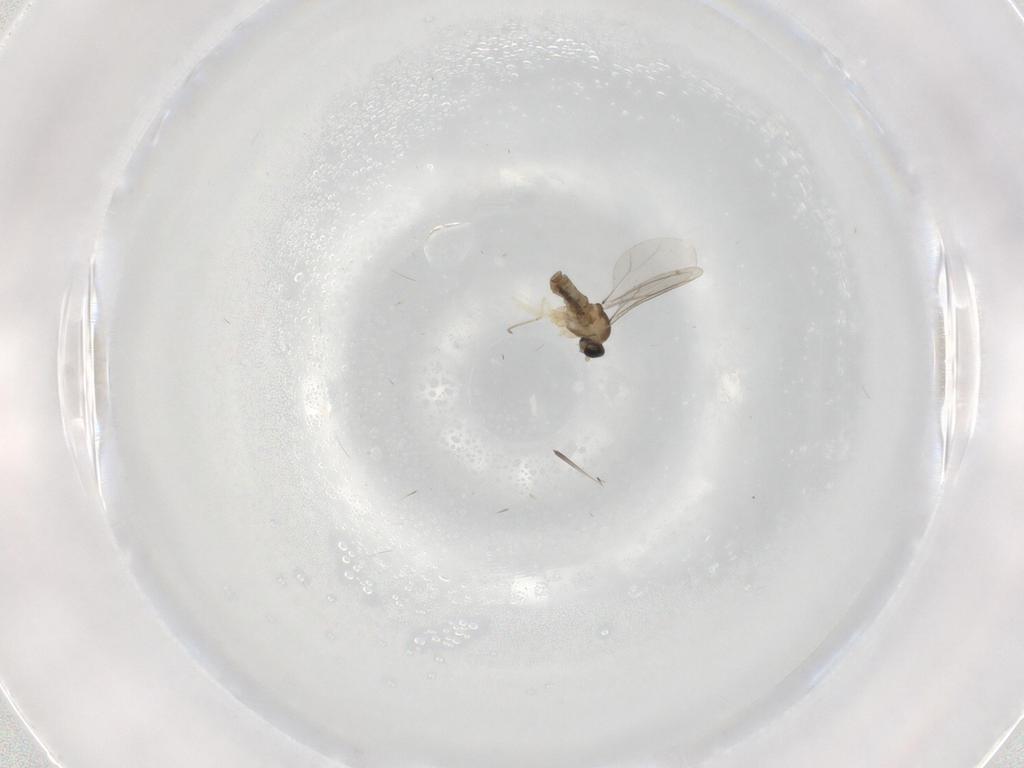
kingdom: Animalia
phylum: Arthropoda
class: Insecta
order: Diptera
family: Cecidomyiidae
